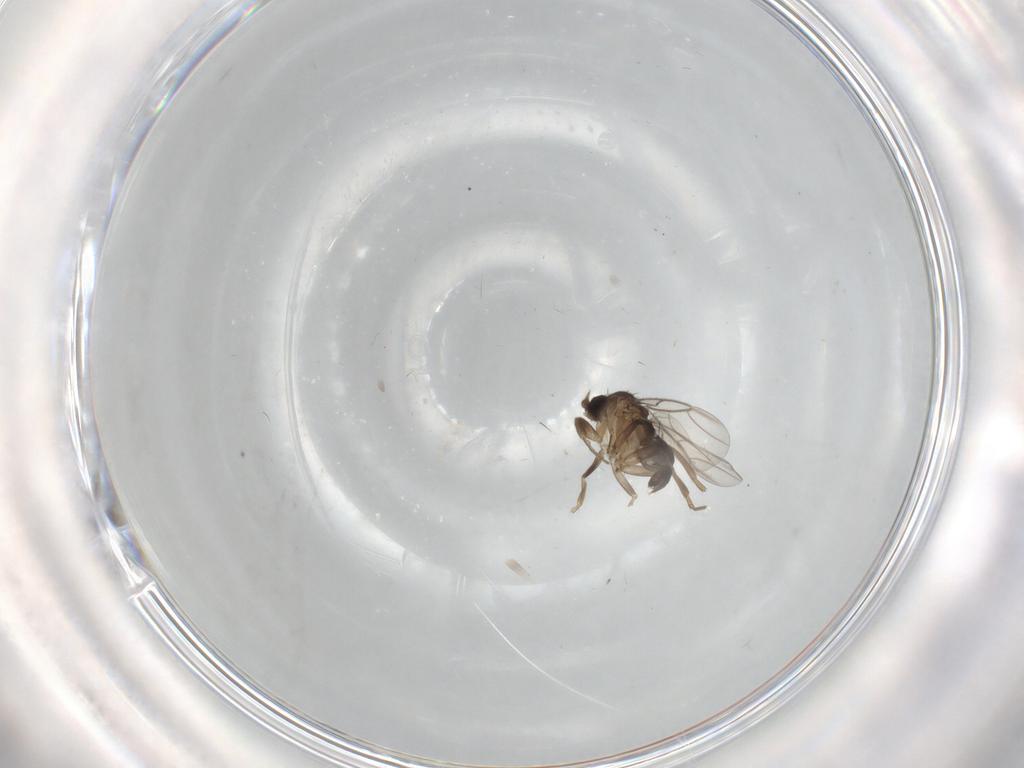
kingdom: Animalia
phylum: Arthropoda
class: Insecta
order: Diptera
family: Phoridae
